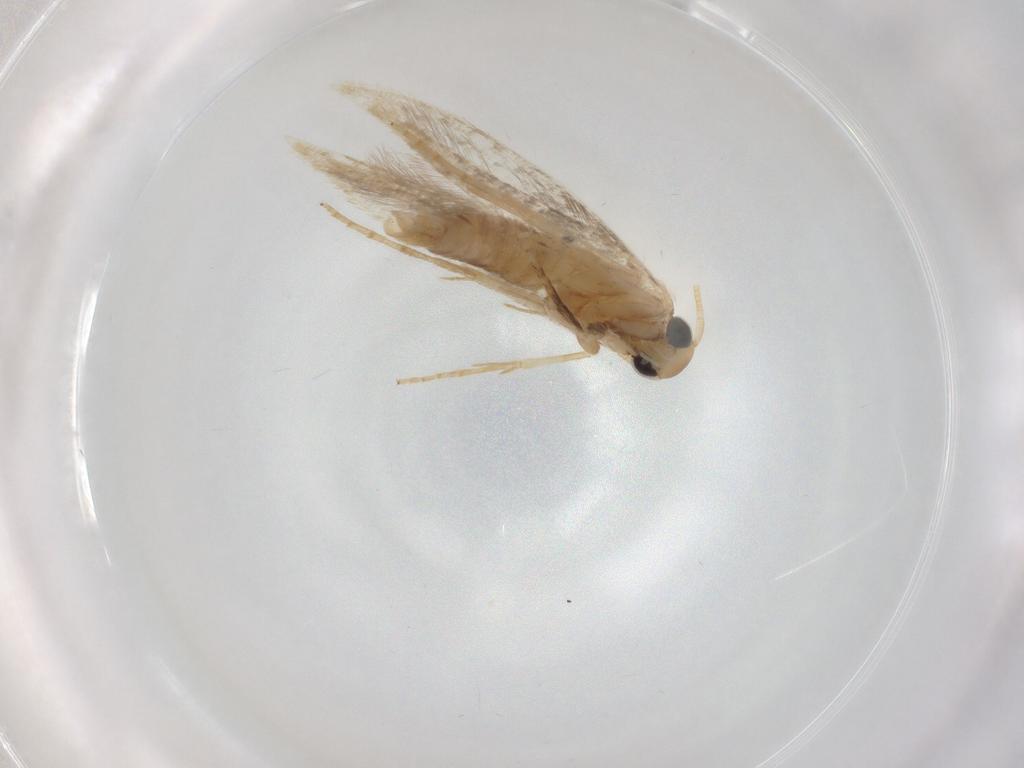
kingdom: Animalia
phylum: Arthropoda
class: Insecta
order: Lepidoptera
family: Tineidae
